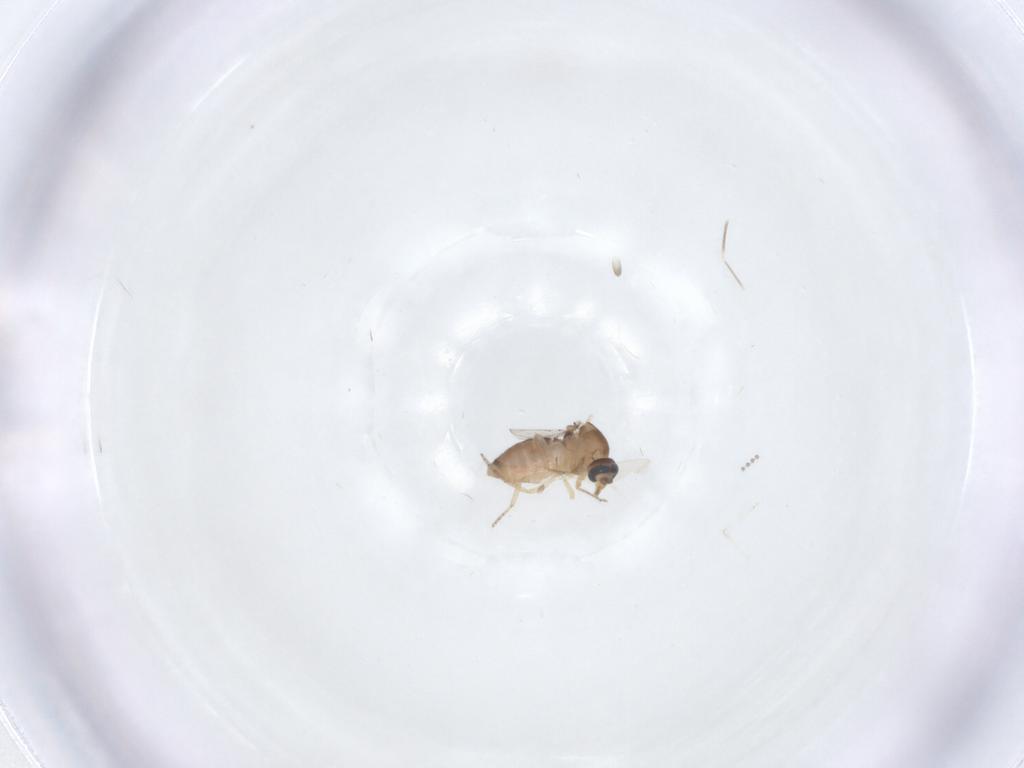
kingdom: Animalia
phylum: Arthropoda
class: Insecta
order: Diptera
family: Ceratopogonidae
